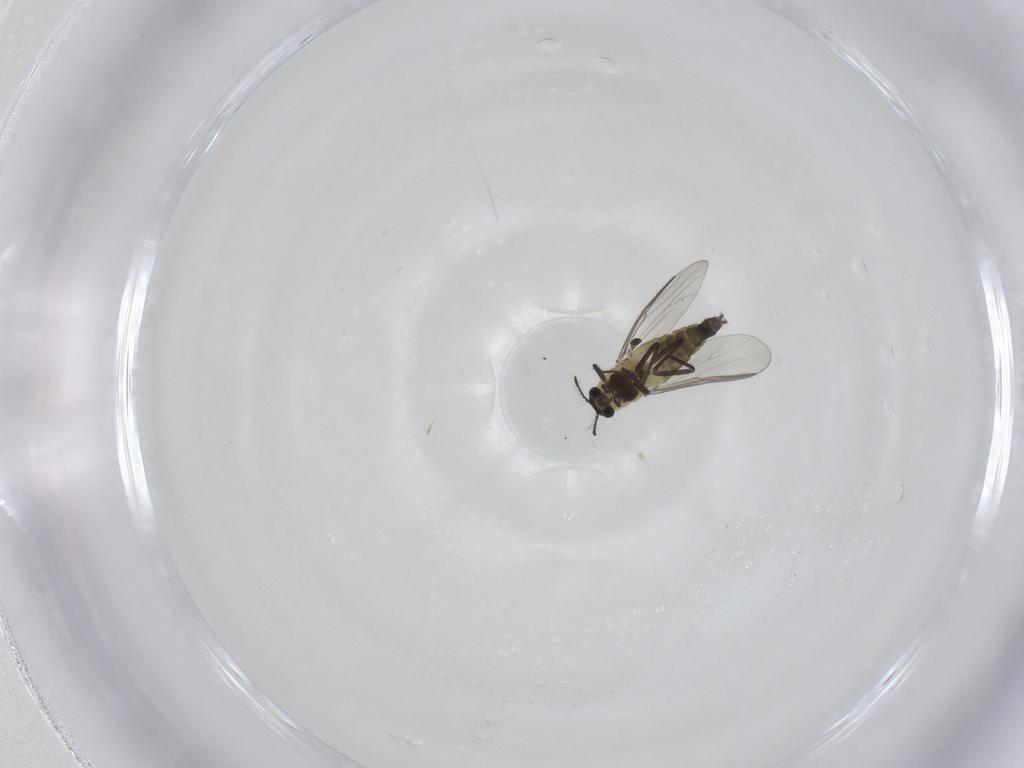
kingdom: Animalia
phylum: Arthropoda
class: Insecta
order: Diptera
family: Chironomidae
